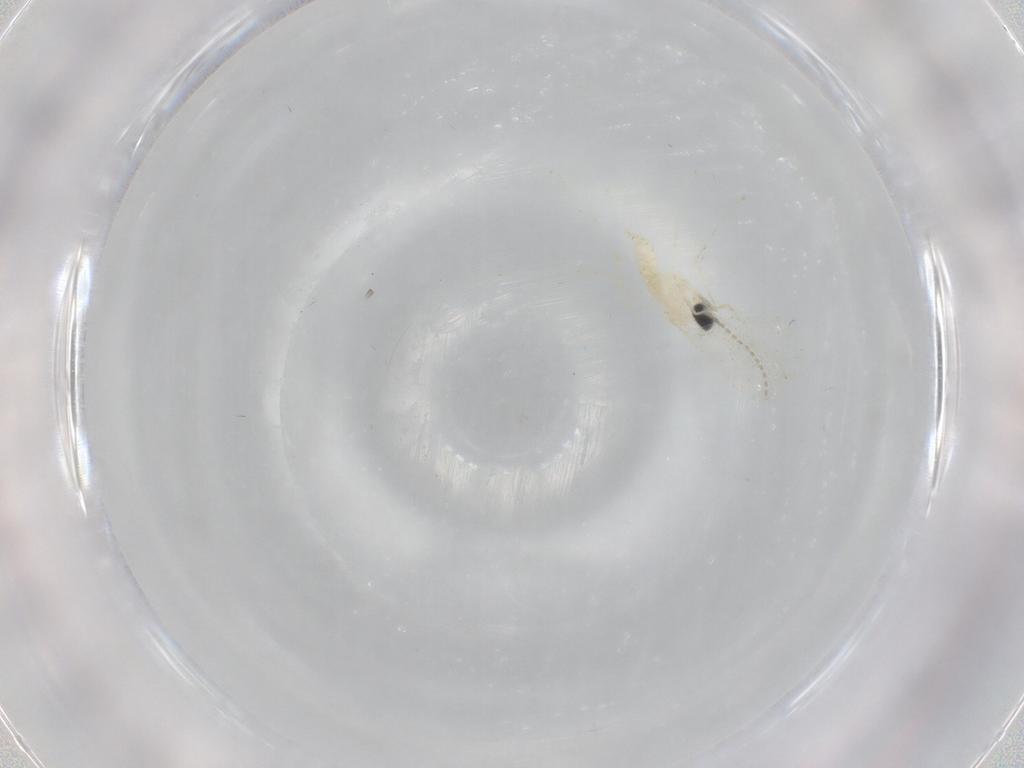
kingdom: Animalia
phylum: Arthropoda
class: Insecta
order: Diptera
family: Cecidomyiidae
